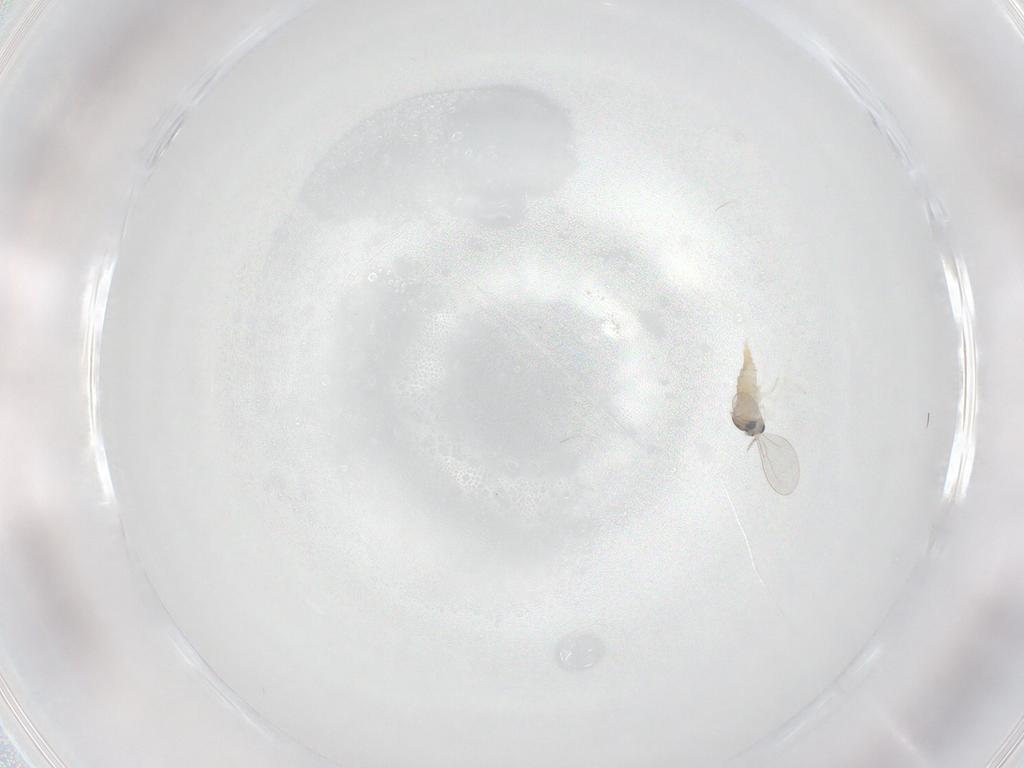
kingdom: Animalia
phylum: Arthropoda
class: Insecta
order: Diptera
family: Cecidomyiidae
